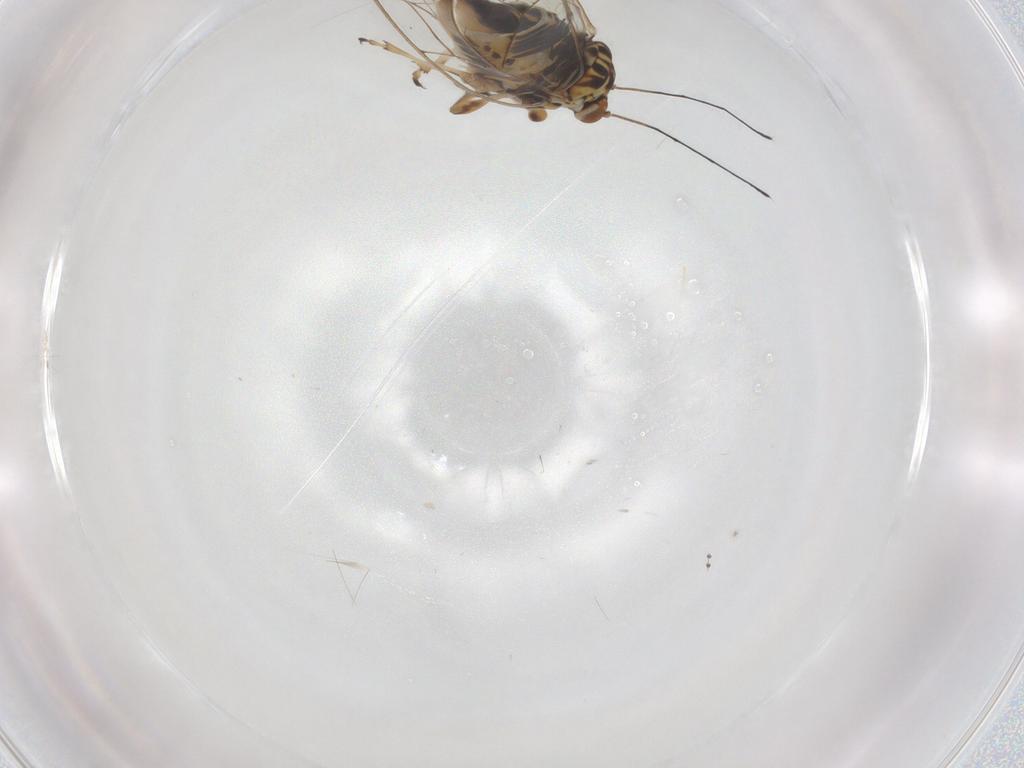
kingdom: Animalia
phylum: Arthropoda
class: Insecta
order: Hemiptera
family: Triozidae
